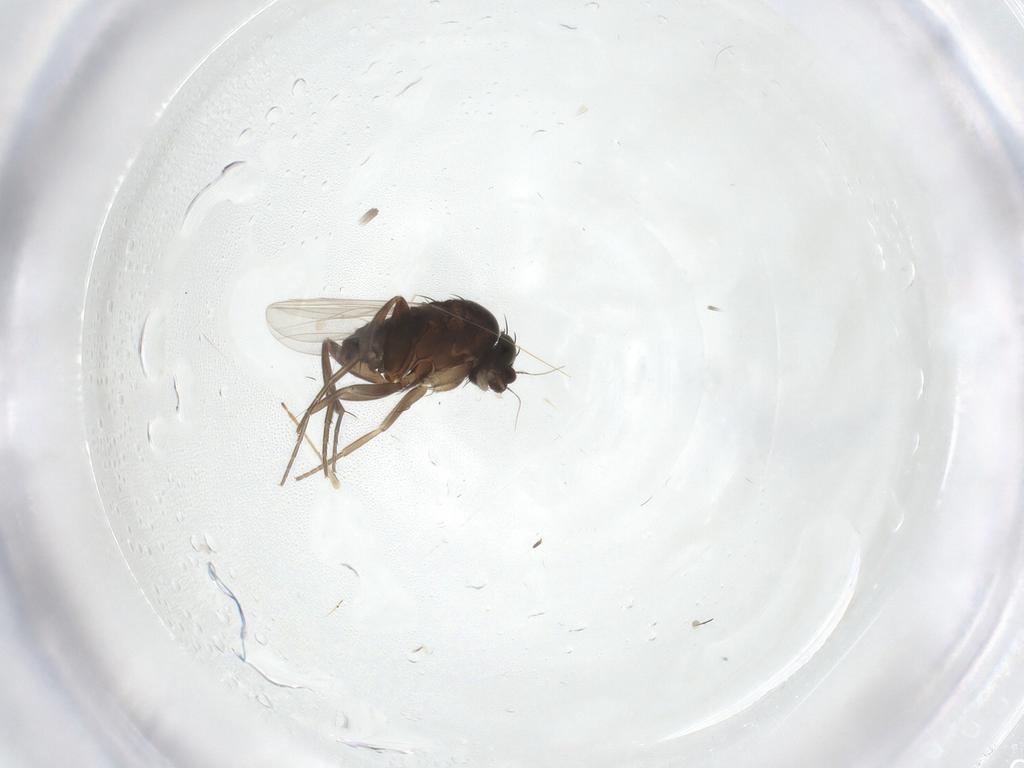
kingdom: Animalia
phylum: Arthropoda
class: Insecta
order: Diptera
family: Phoridae
